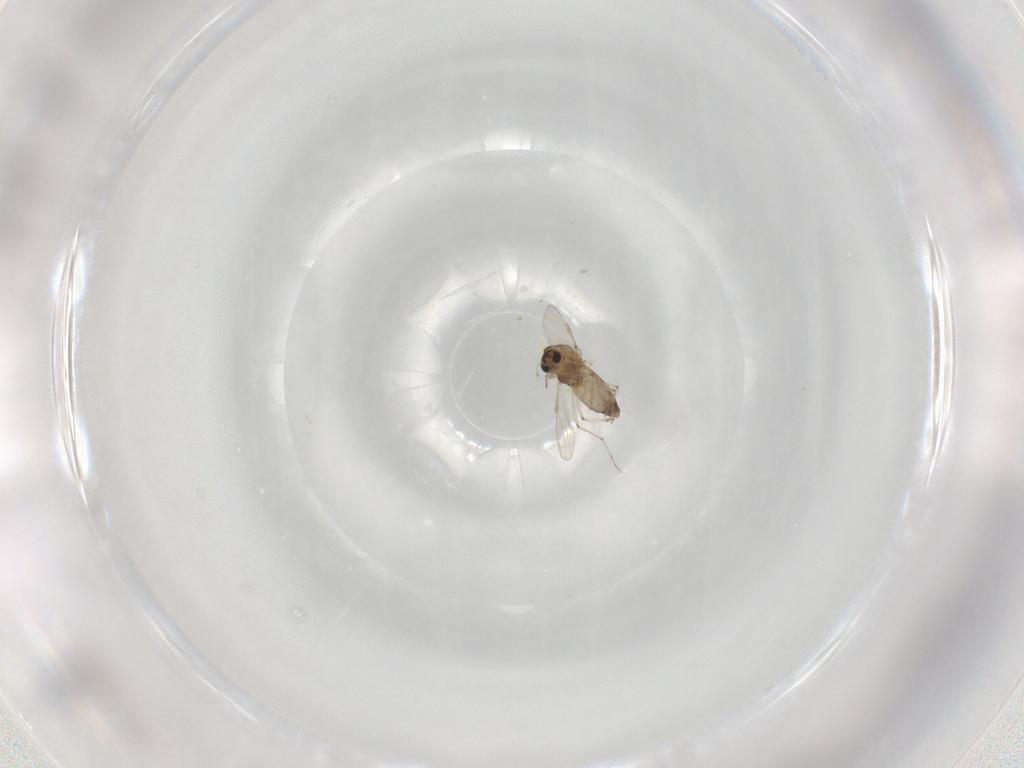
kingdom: Animalia
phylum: Arthropoda
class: Insecta
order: Diptera
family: Chironomidae
